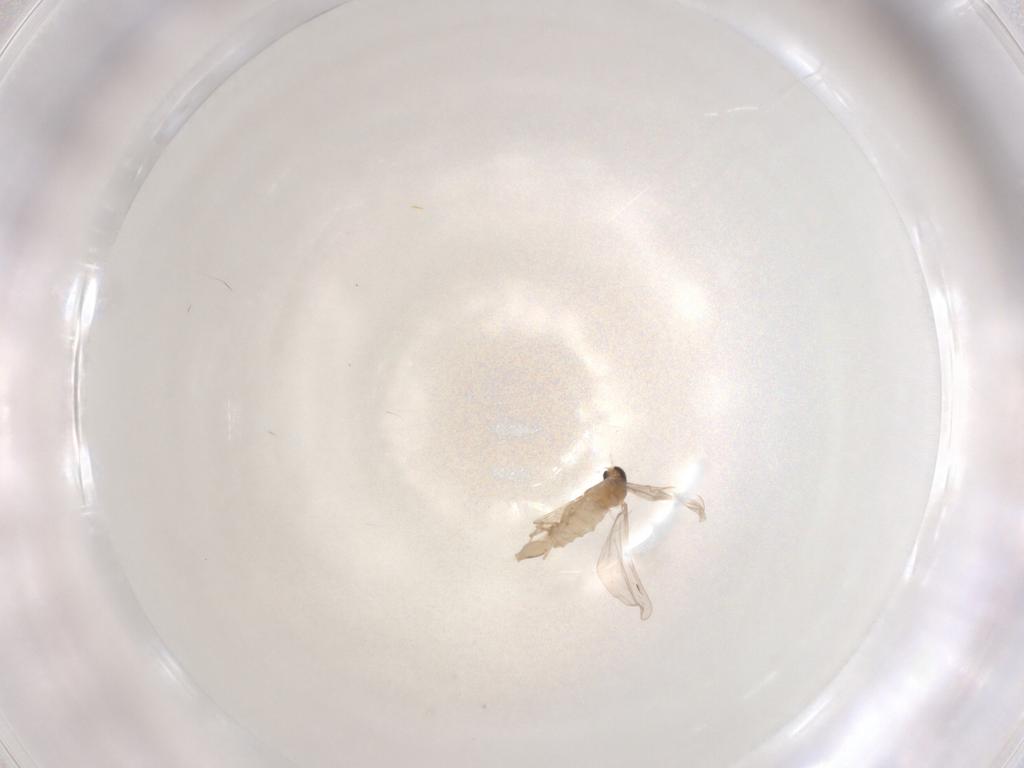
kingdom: Animalia
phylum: Arthropoda
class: Insecta
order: Diptera
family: Cecidomyiidae
